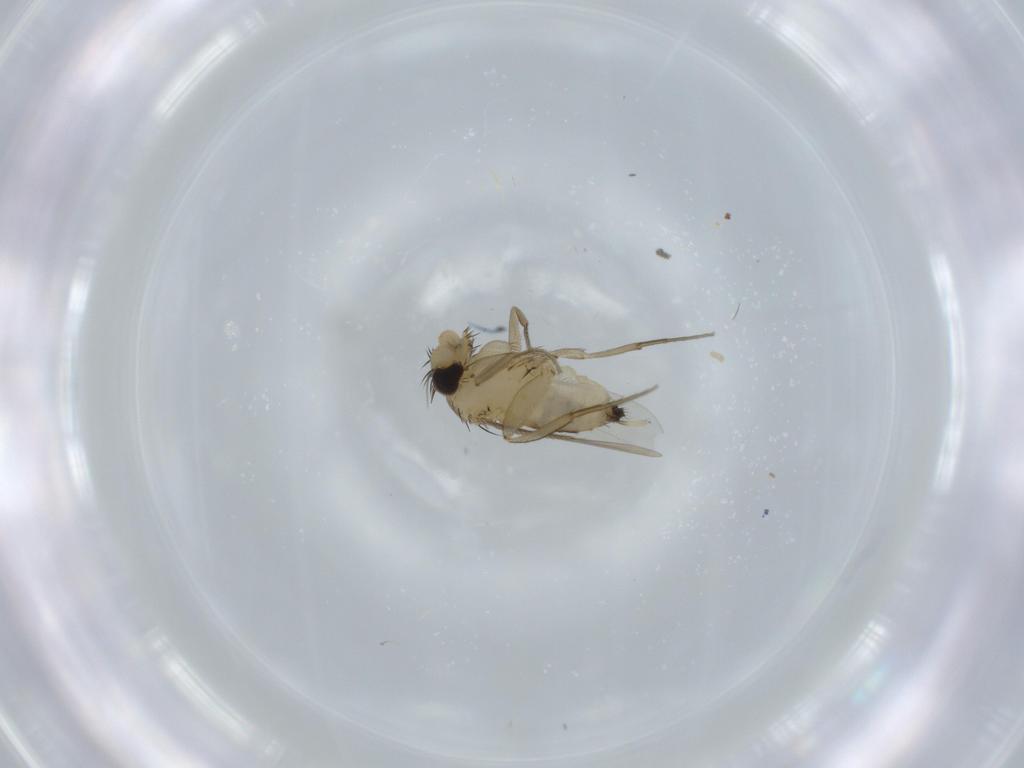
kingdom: Animalia
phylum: Arthropoda
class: Insecta
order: Diptera
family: Phoridae
